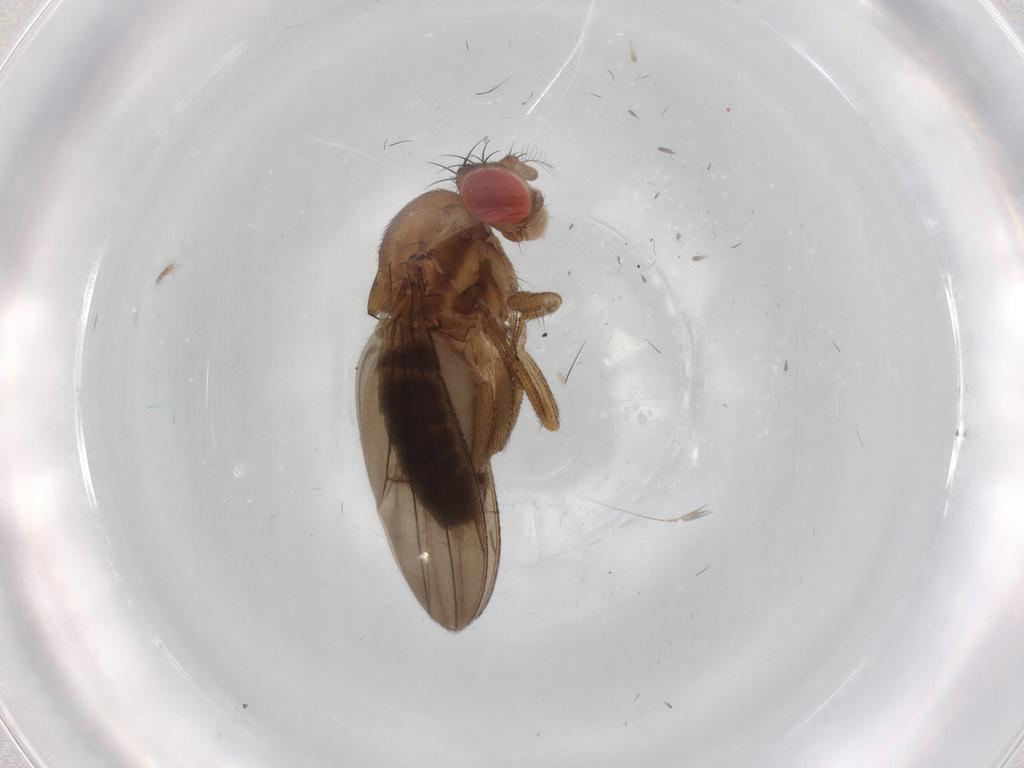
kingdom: Animalia
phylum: Arthropoda
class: Insecta
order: Diptera
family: Drosophilidae
